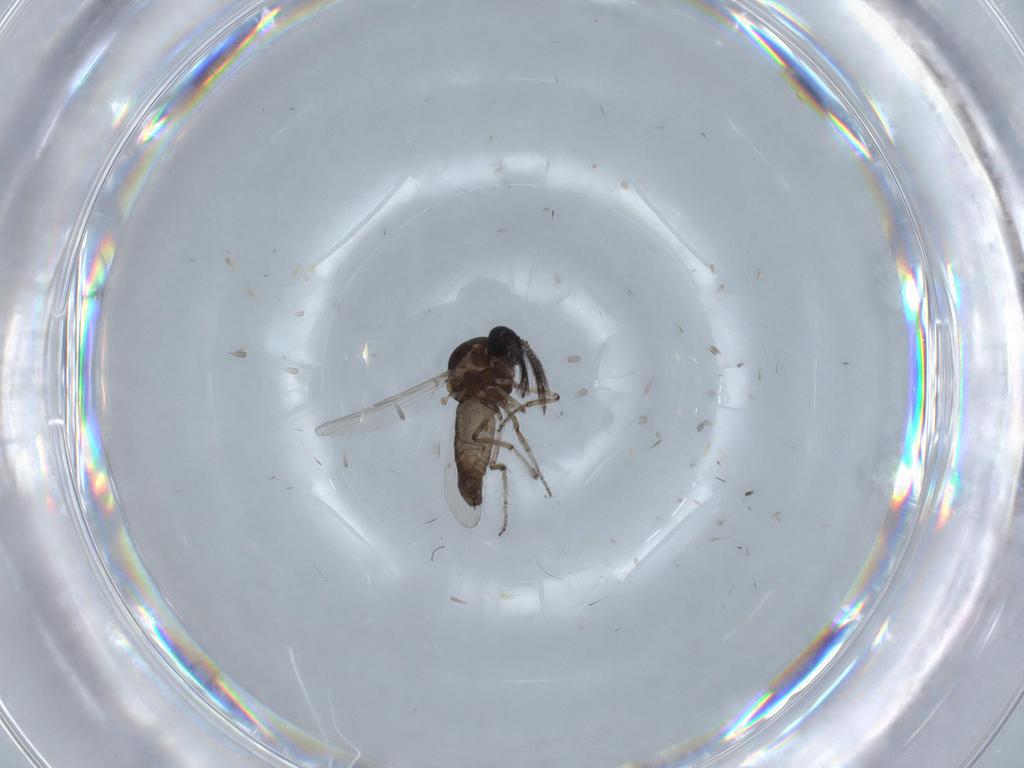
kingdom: Animalia
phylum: Arthropoda
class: Insecta
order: Diptera
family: Ceratopogonidae
